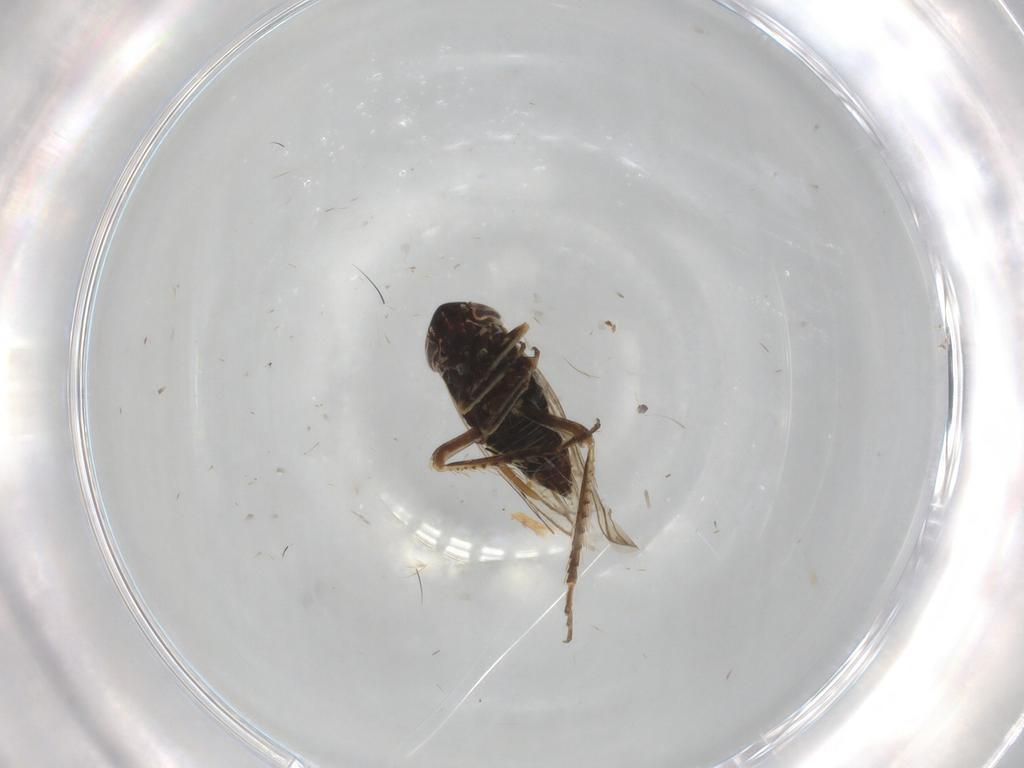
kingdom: Animalia
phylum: Arthropoda
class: Insecta
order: Hemiptera
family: Cicadellidae
